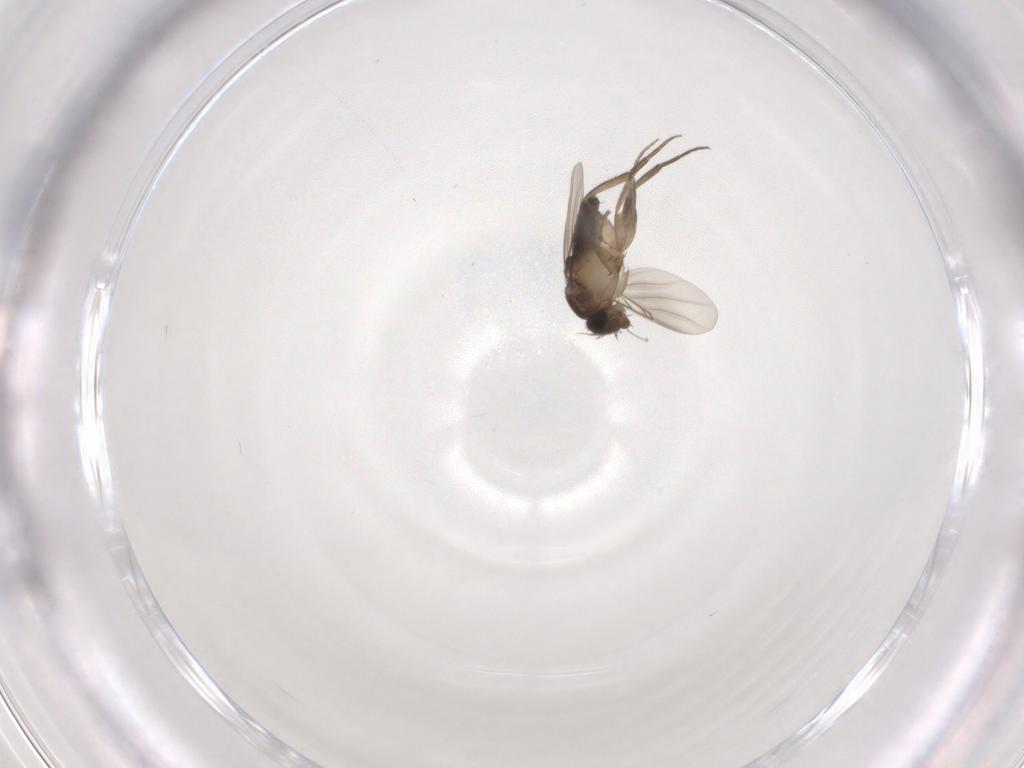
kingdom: Animalia
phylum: Arthropoda
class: Insecta
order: Diptera
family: Phoridae
